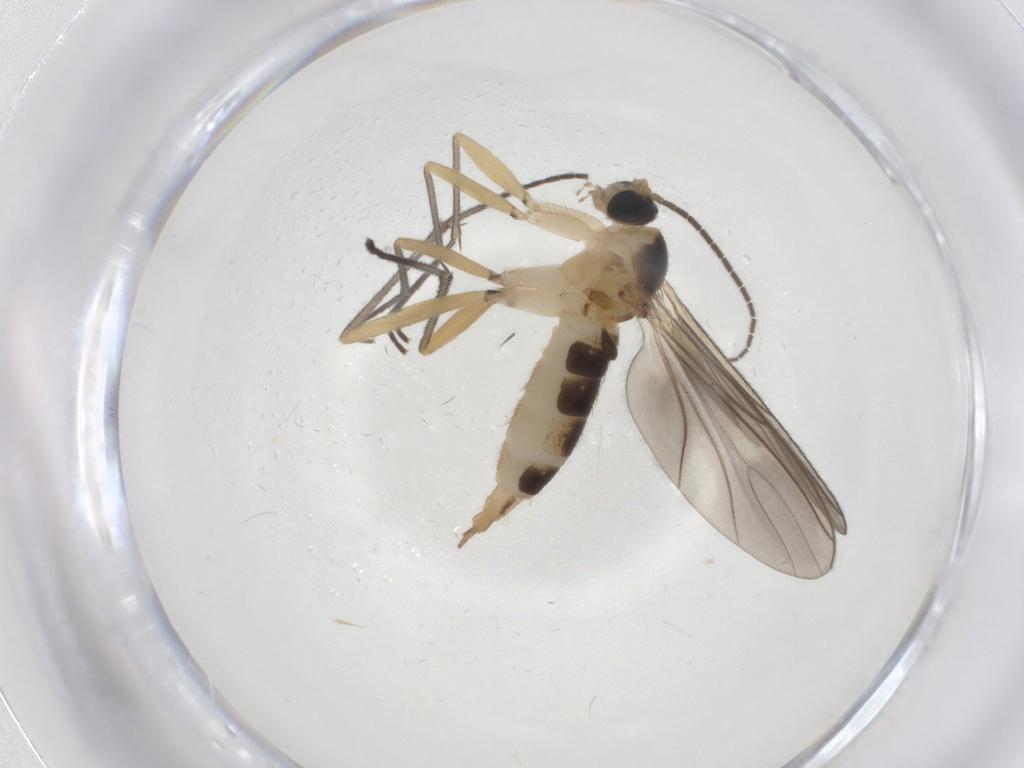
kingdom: Animalia
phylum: Arthropoda
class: Insecta
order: Diptera
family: Sciaridae
